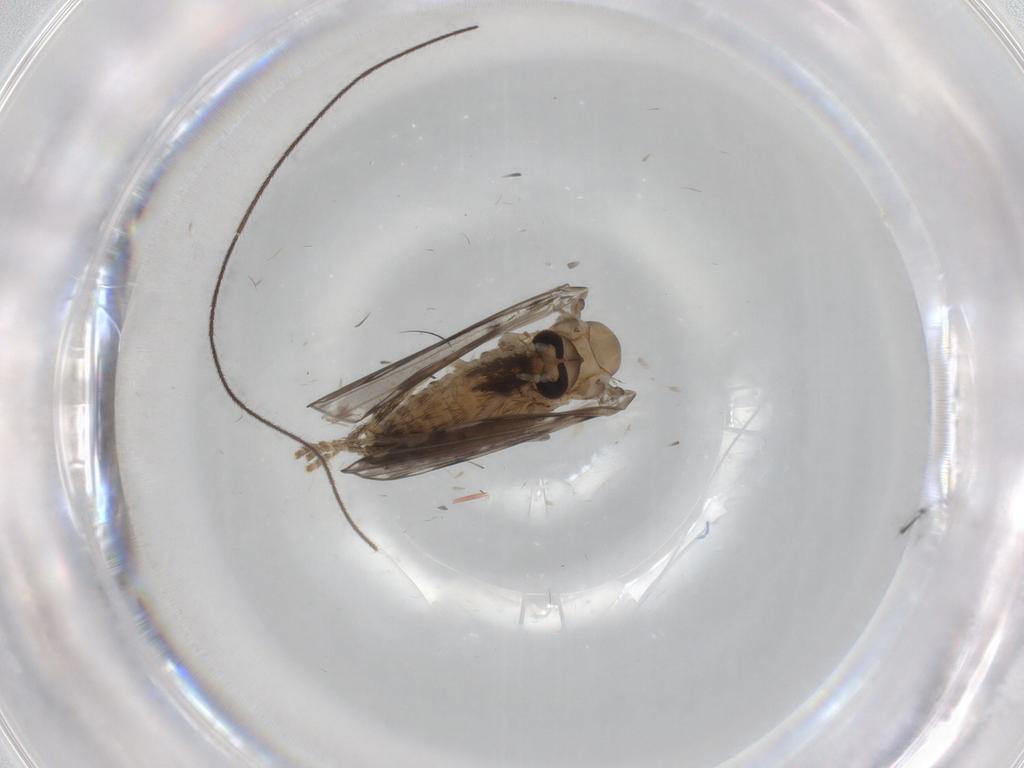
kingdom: Animalia
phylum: Arthropoda
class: Insecta
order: Diptera
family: Psychodidae
